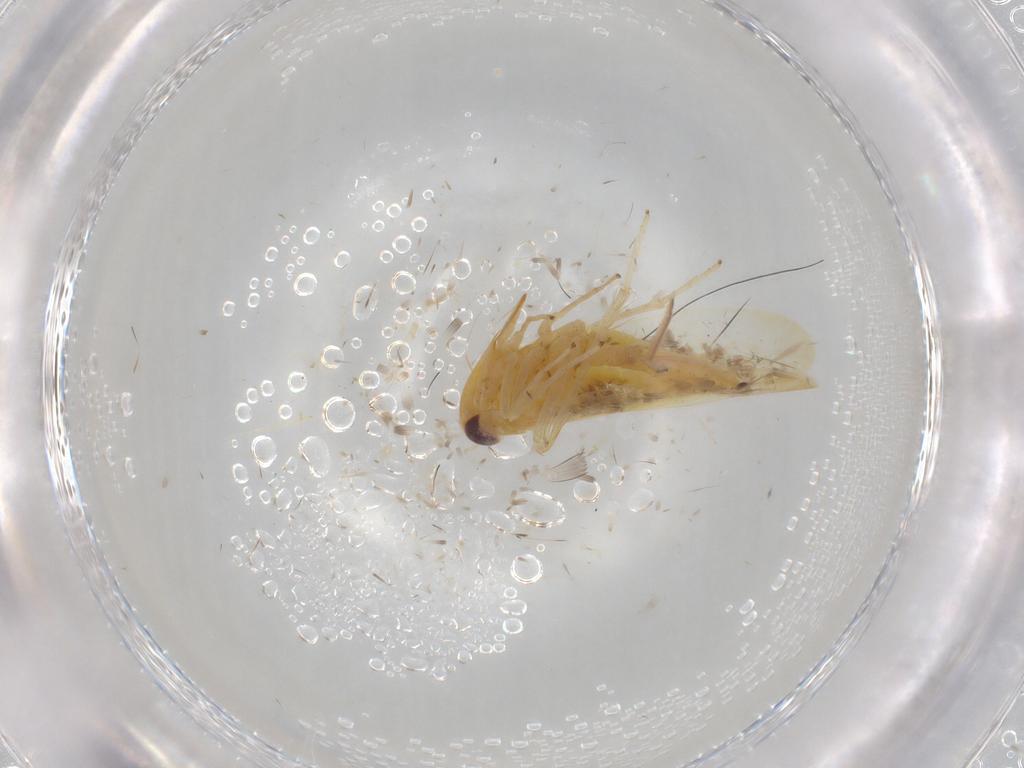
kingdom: Animalia
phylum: Arthropoda
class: Insecta
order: Hemiptera
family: Cicadellidae
